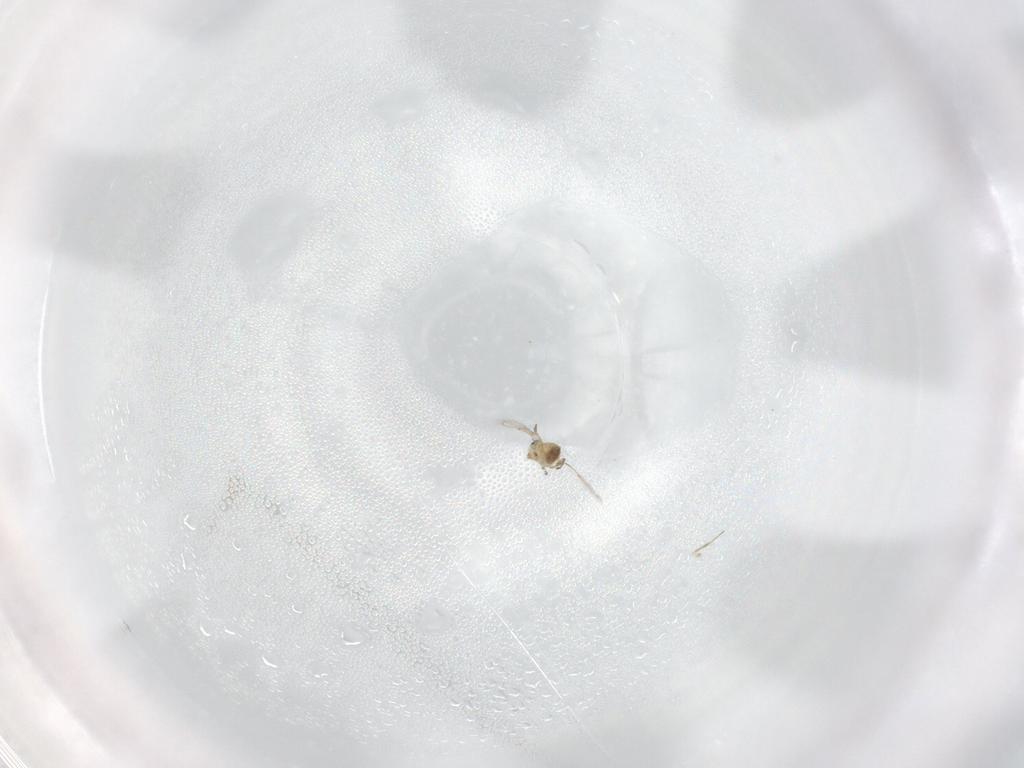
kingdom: Animalia
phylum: Arthropoda
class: Insecta
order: Hymenoptera
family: Trichogrammatidae
